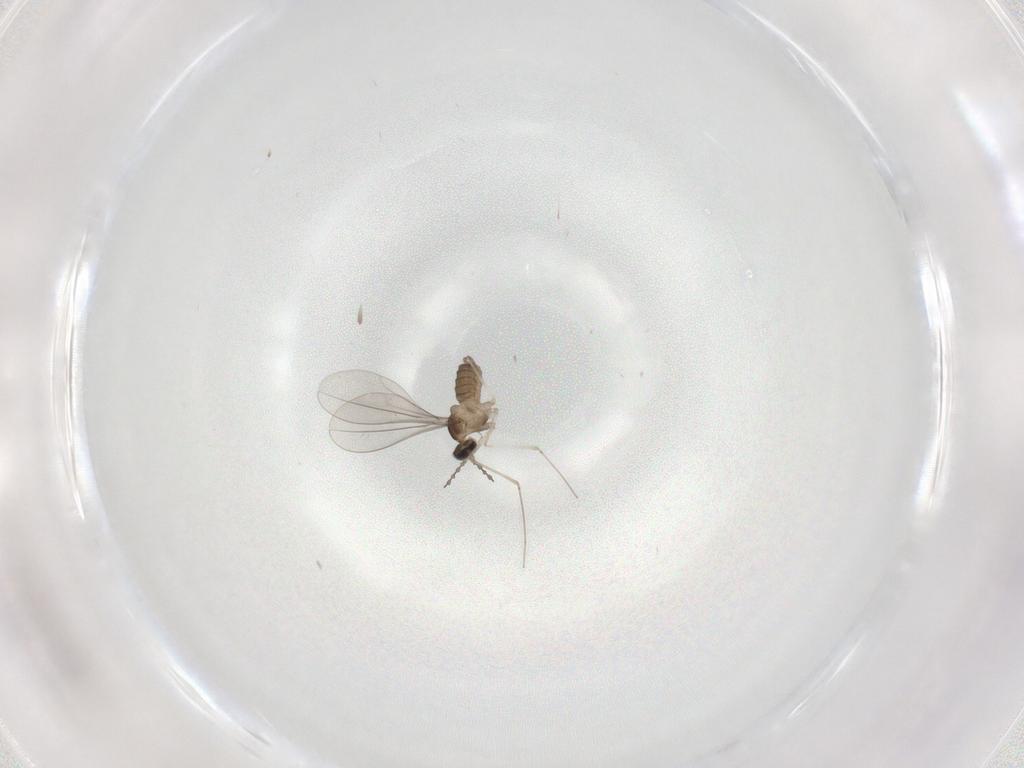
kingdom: Animalia
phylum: Arthropoda
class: Insecta
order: Diptera
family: Cecidomyiidae
